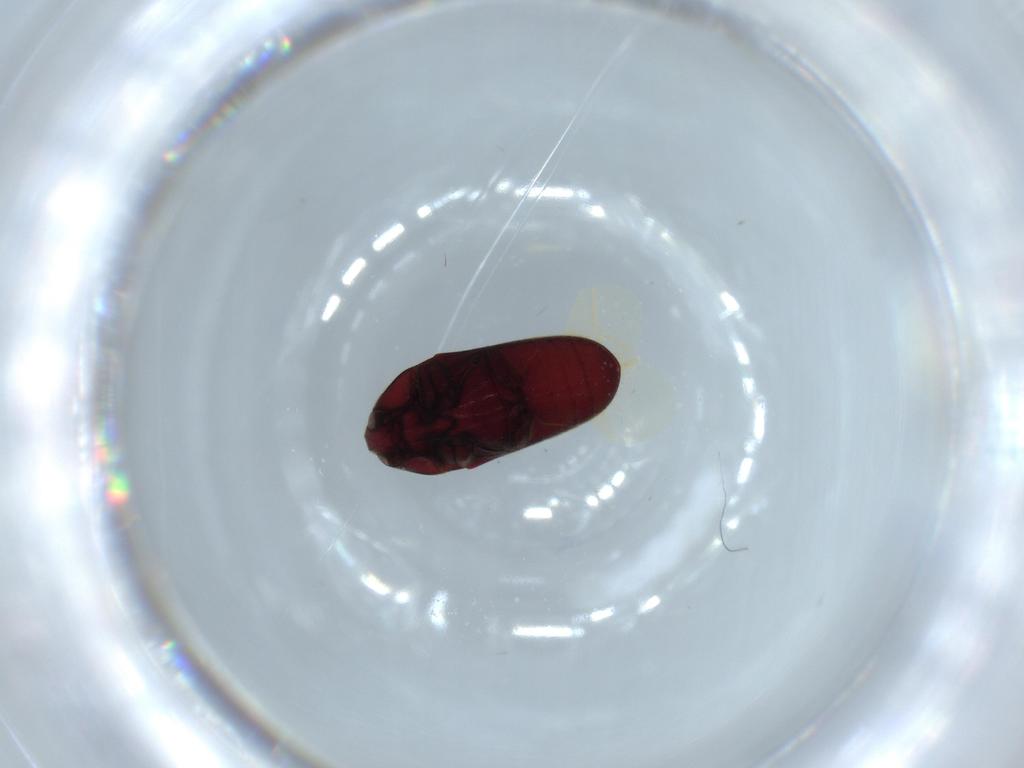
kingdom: Animalia
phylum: Arthropoda
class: Insecta
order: Coleoptera
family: Throscidae
